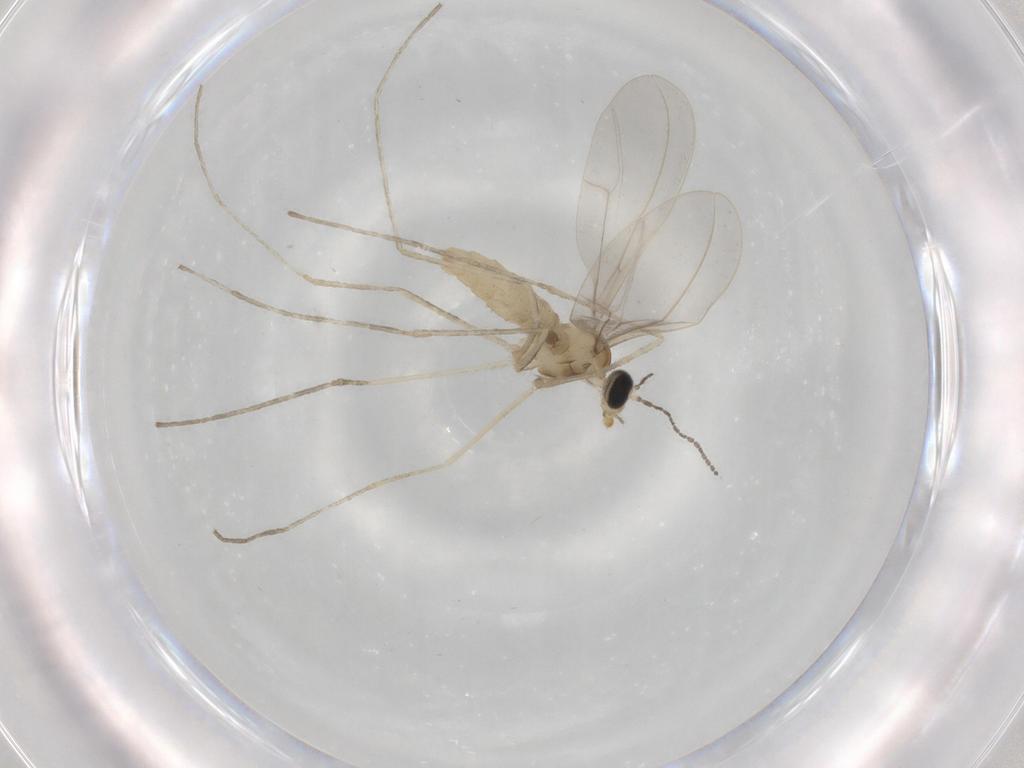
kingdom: Animalia
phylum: Arthropoda
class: Insecta
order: Diptera
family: Cecidomyiidae
